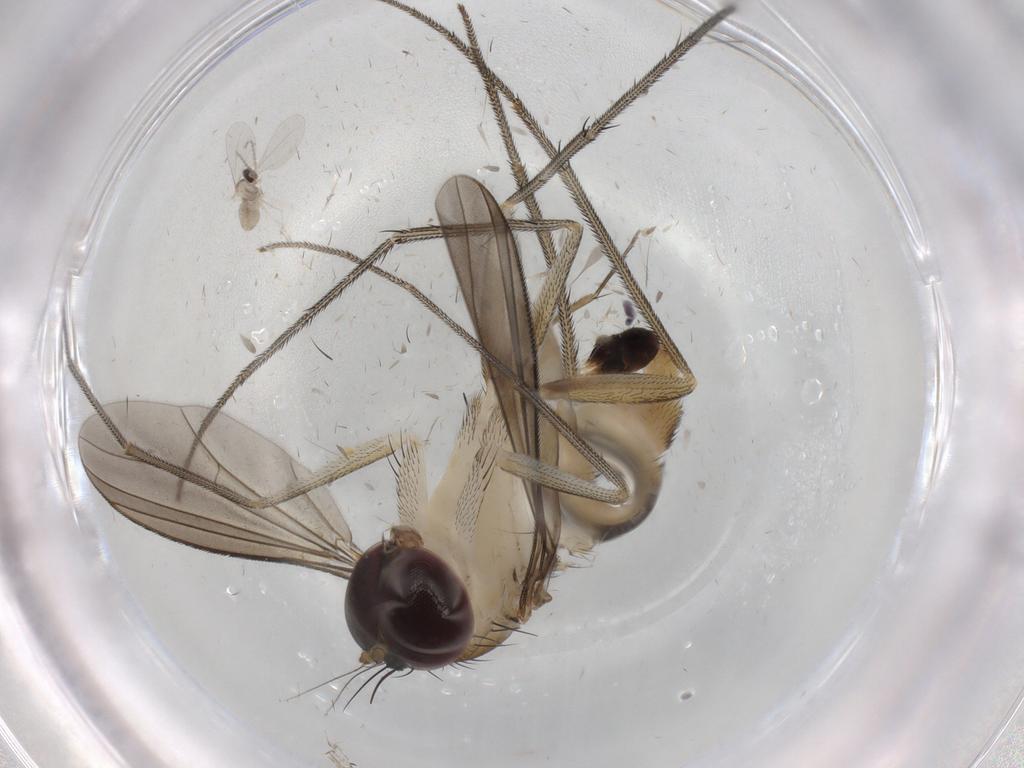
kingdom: Animalia
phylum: Arthropoda
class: Insecta
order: Diptera
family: Dolichopodidae
